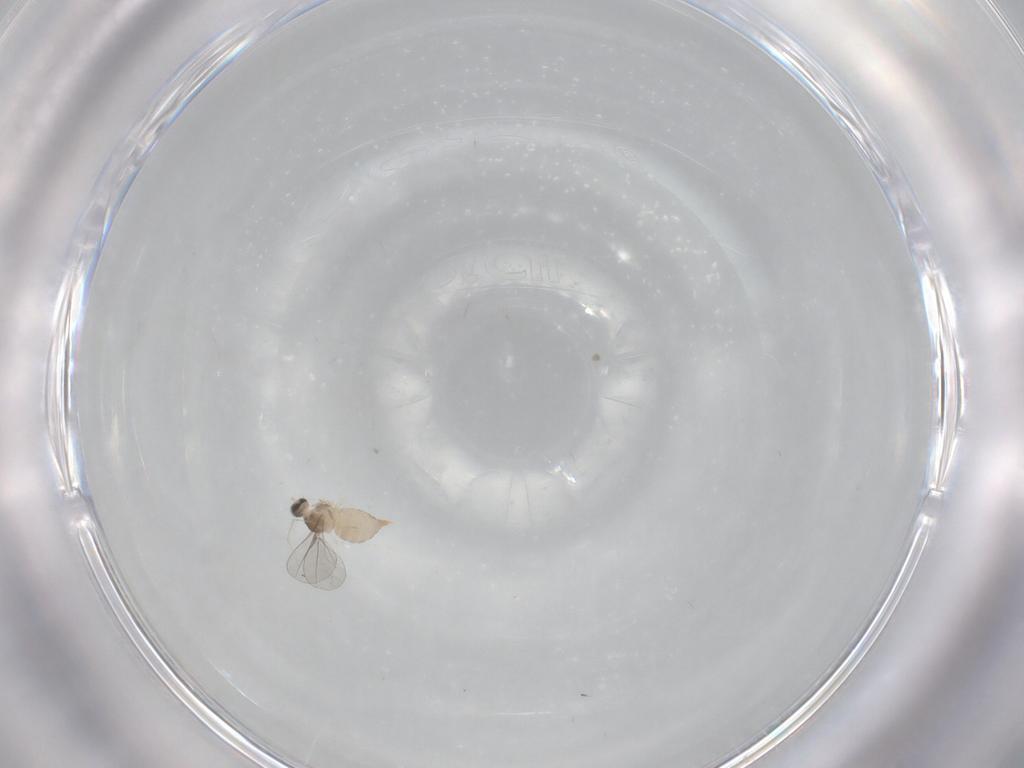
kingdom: Animalia
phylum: Arthropoda
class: Insecta
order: Diptera
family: Cecidomyiidae
